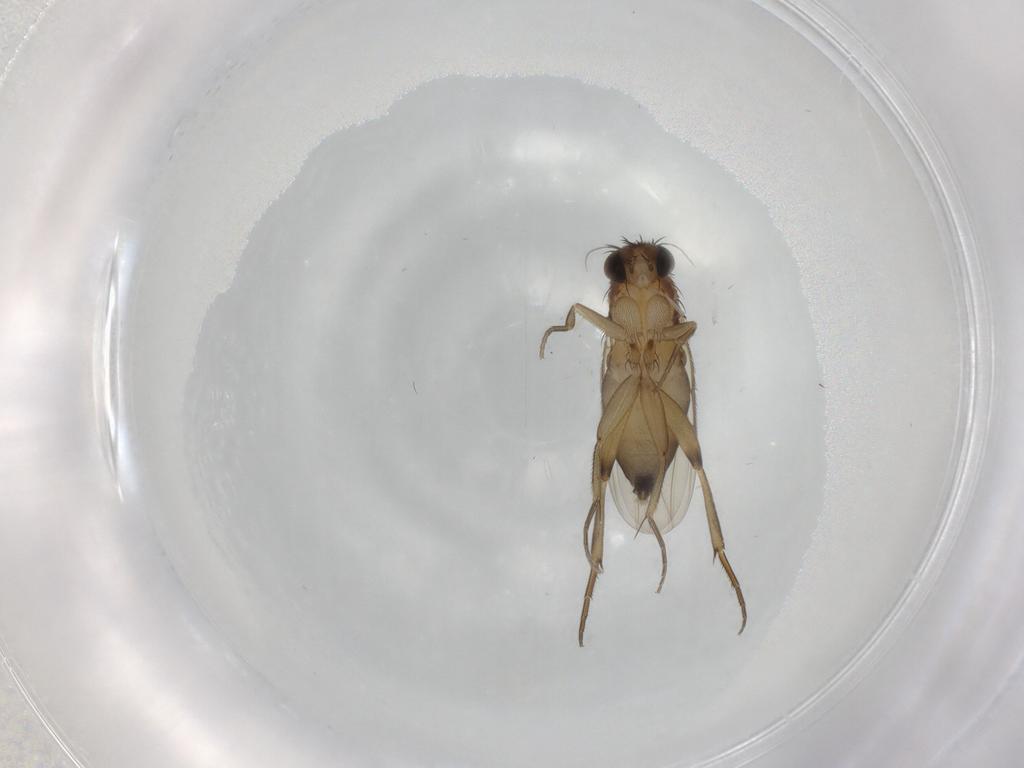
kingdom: Animalia
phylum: Arthropoda
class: Insecta
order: Diptera
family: Phoridae
